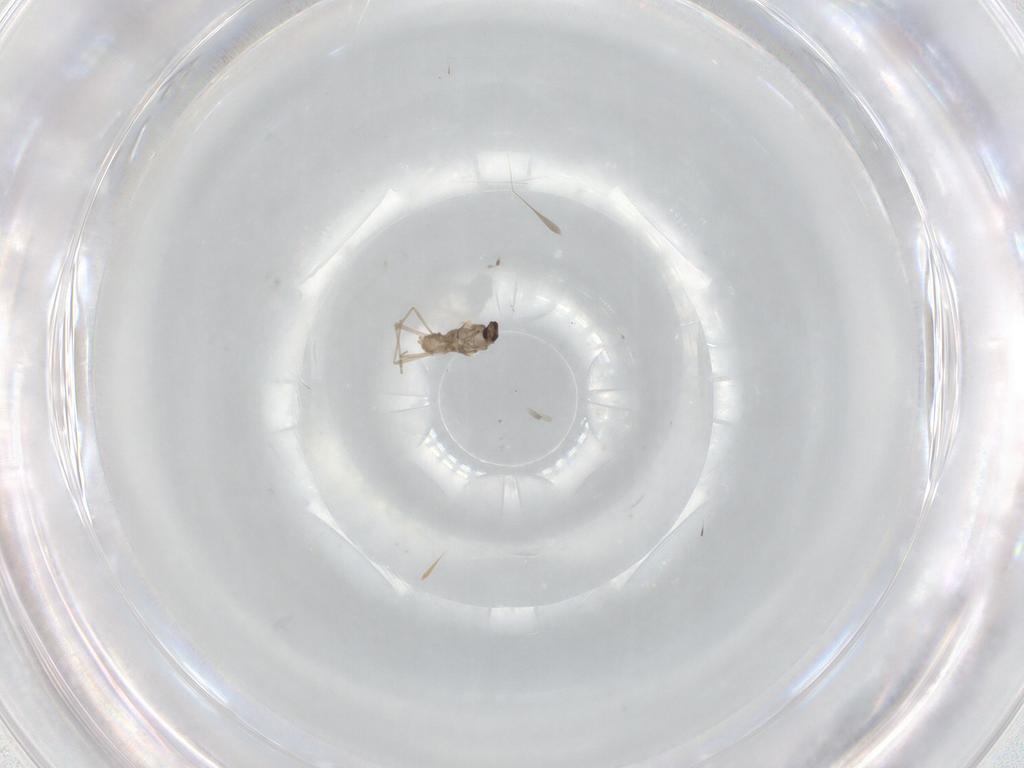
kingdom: Animalia
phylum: Arthropoda
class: Insecta
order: Diptera
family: Cecidomyiidae
